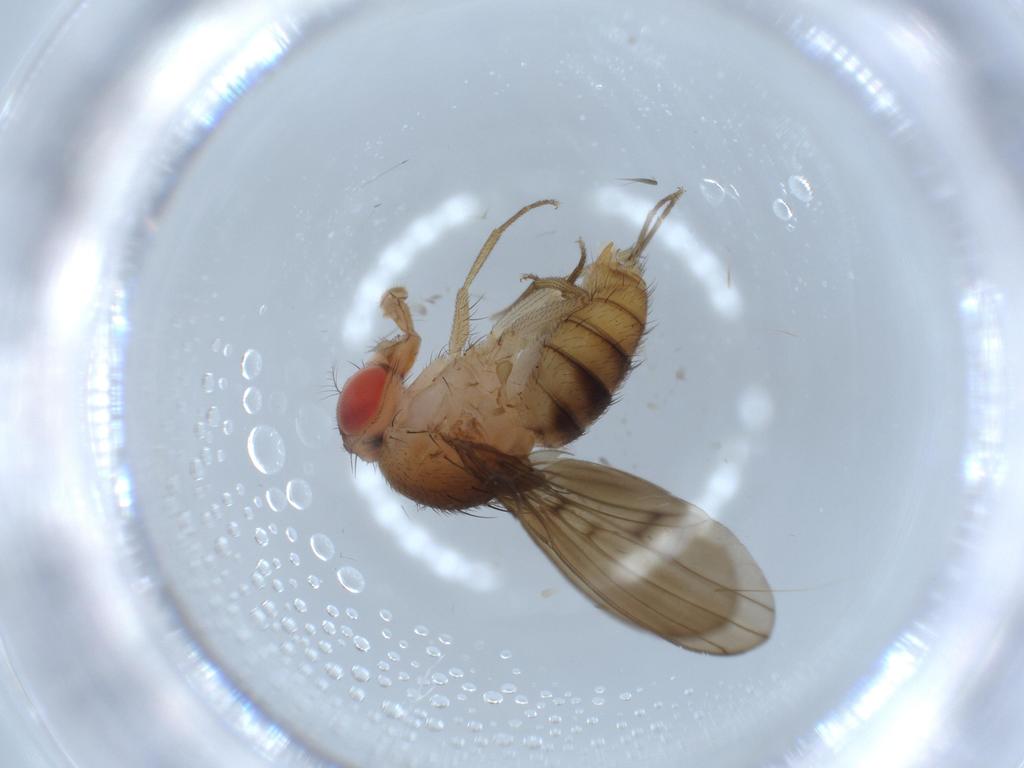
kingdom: Animalia
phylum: Arthropoda
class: Insecta
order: Diptera
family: Drosophilidae
